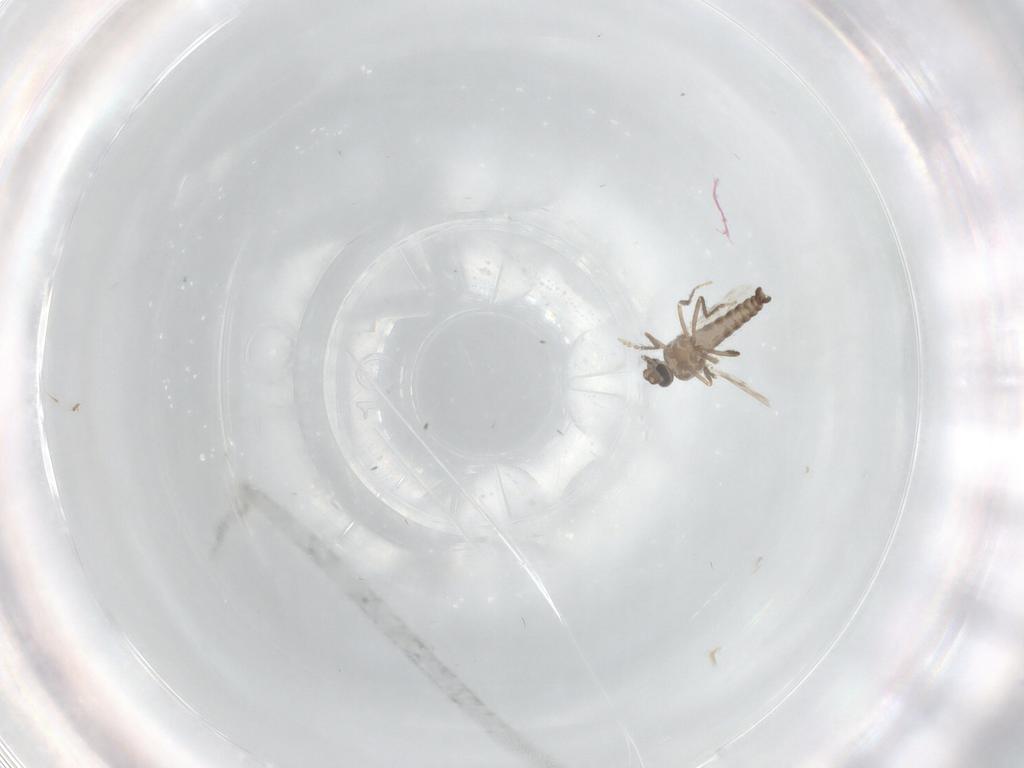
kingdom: Animalia
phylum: Arthropoda
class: Insecta
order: Diptera
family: Ceratopogonidae
